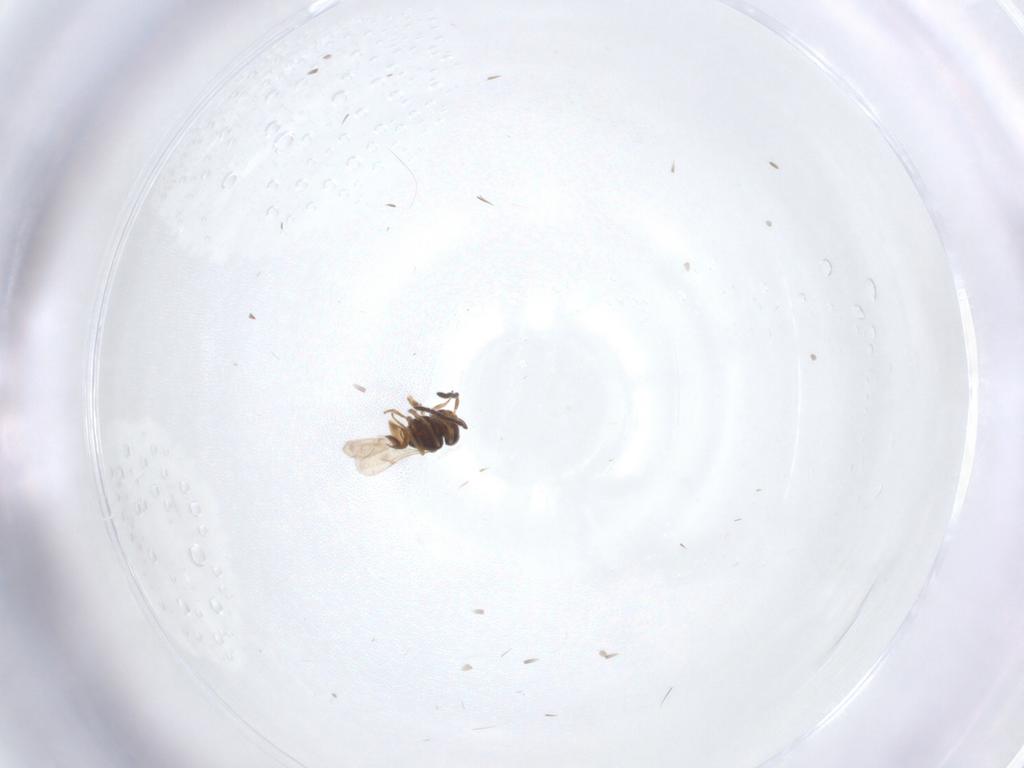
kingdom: Animalia
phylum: Arthropoda
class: Insecta
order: Hymenoptera
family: Scelionidae
